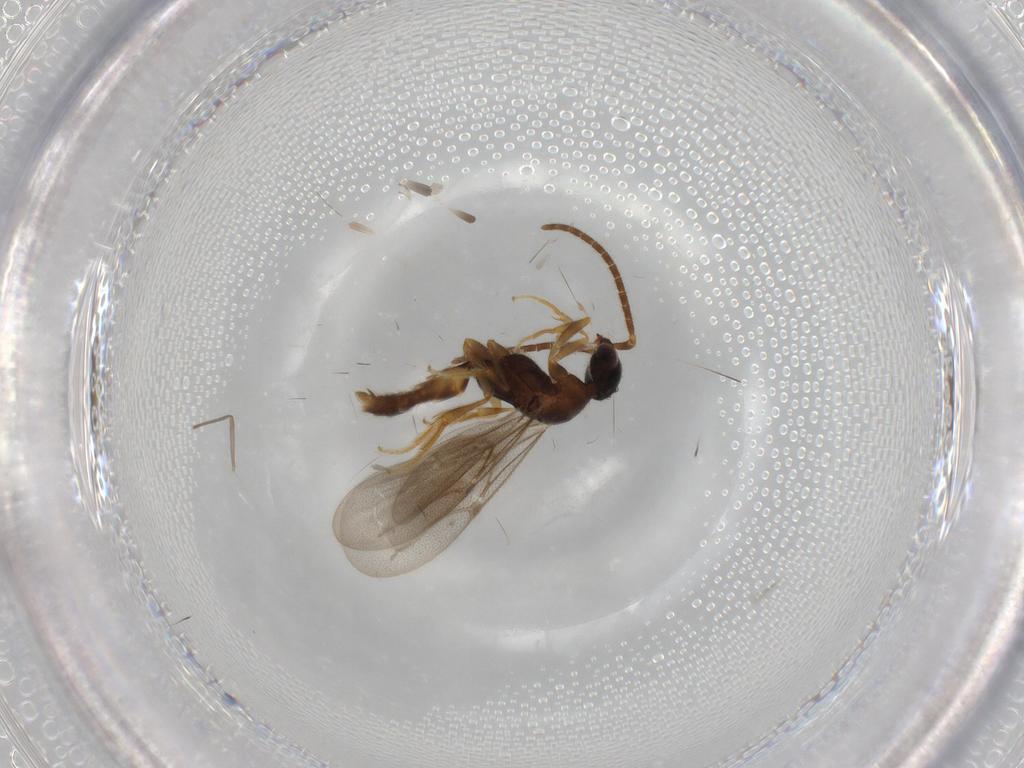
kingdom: Animalia
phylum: Arthropoda
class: Insecta
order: Hymenoptera
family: Bethylidae
